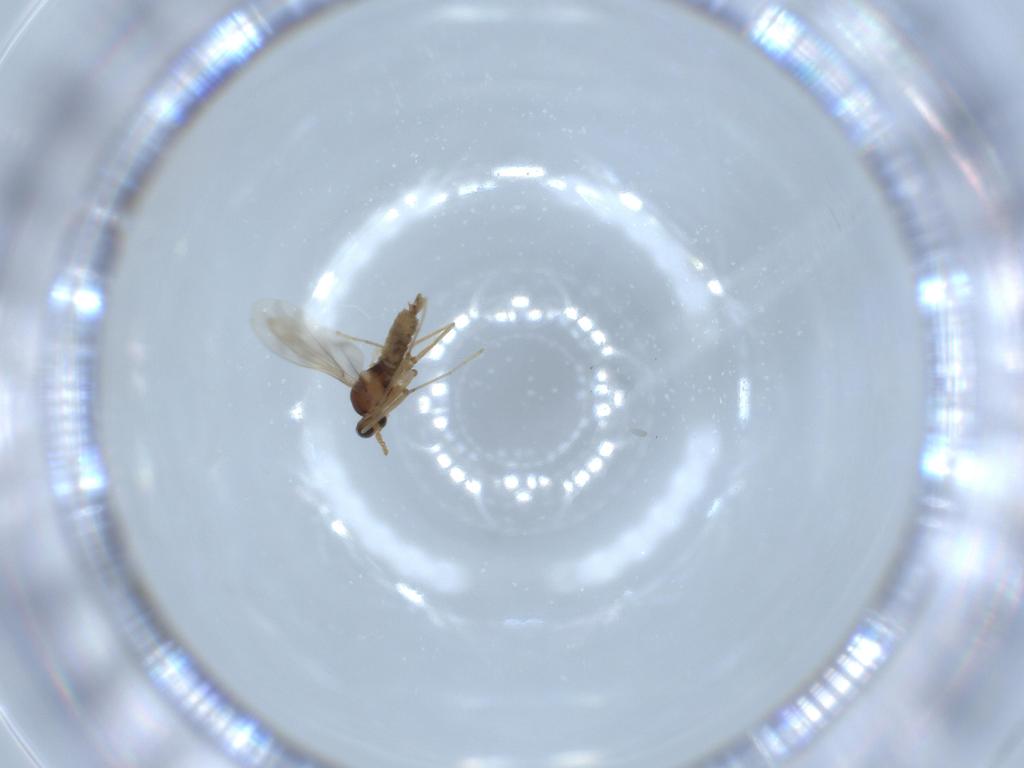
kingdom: Animalia
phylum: Arthropoda
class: Insecta
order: Diptera
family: Cecidomyiidae
